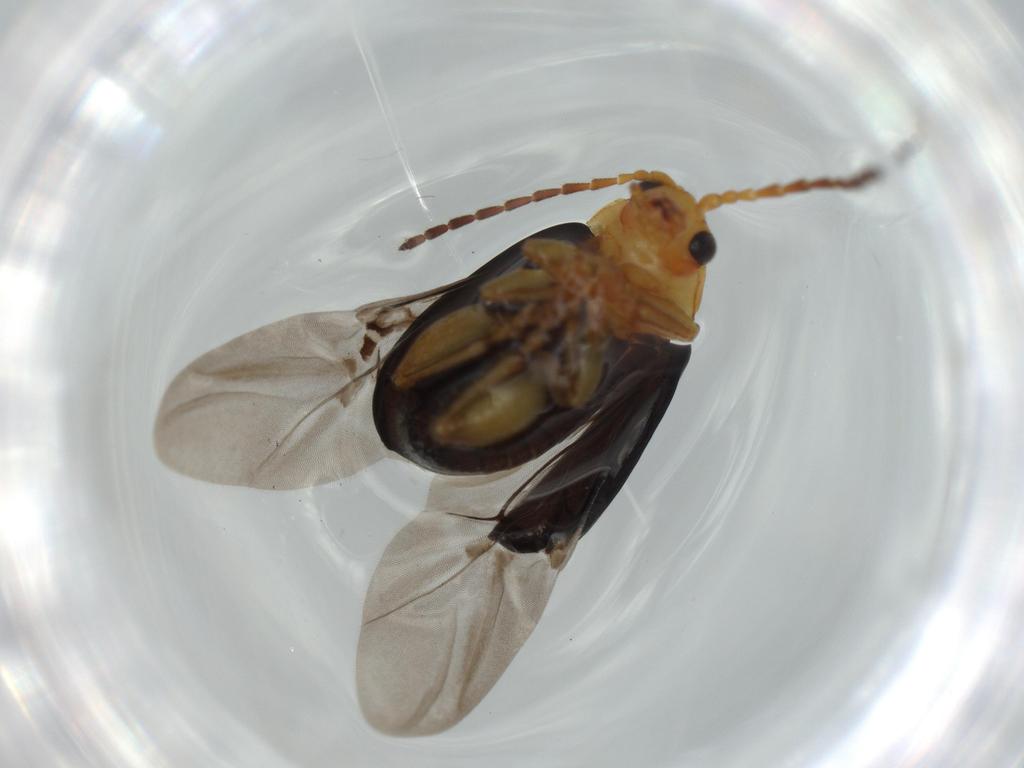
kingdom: Animalia
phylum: Arthropoda
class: Insecta
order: Coleoptera
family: Chrysomelidae
